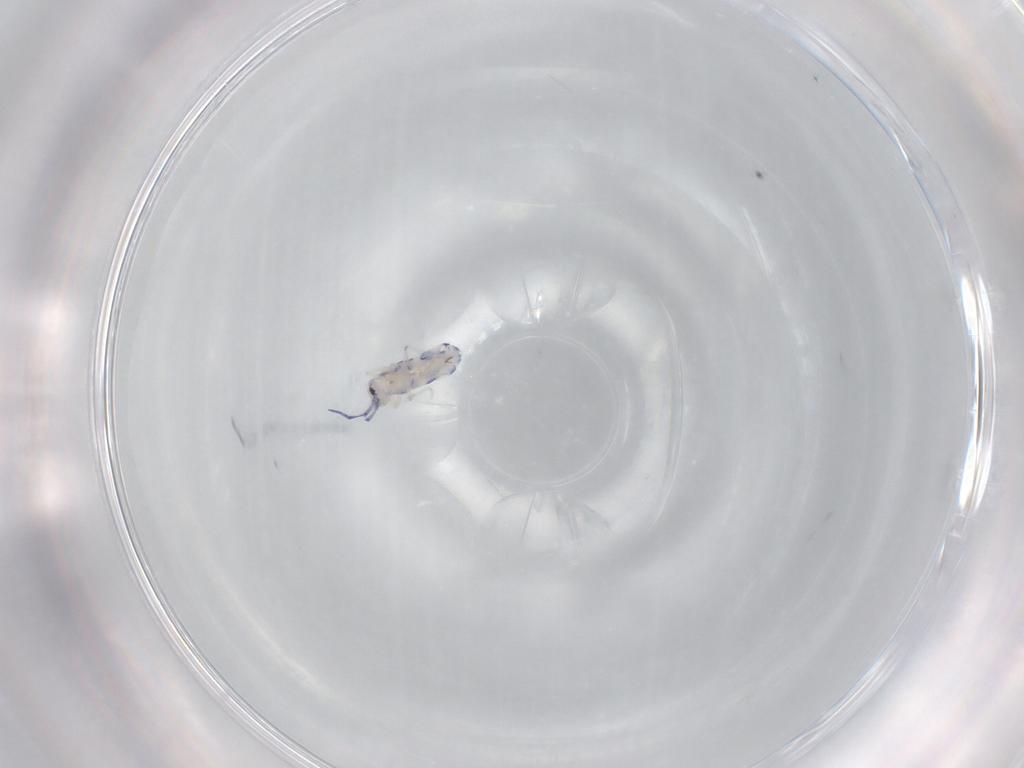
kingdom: Animalia
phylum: Arthropoda
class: Collembola
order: Entomobryomorpha
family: Entomobryidae
